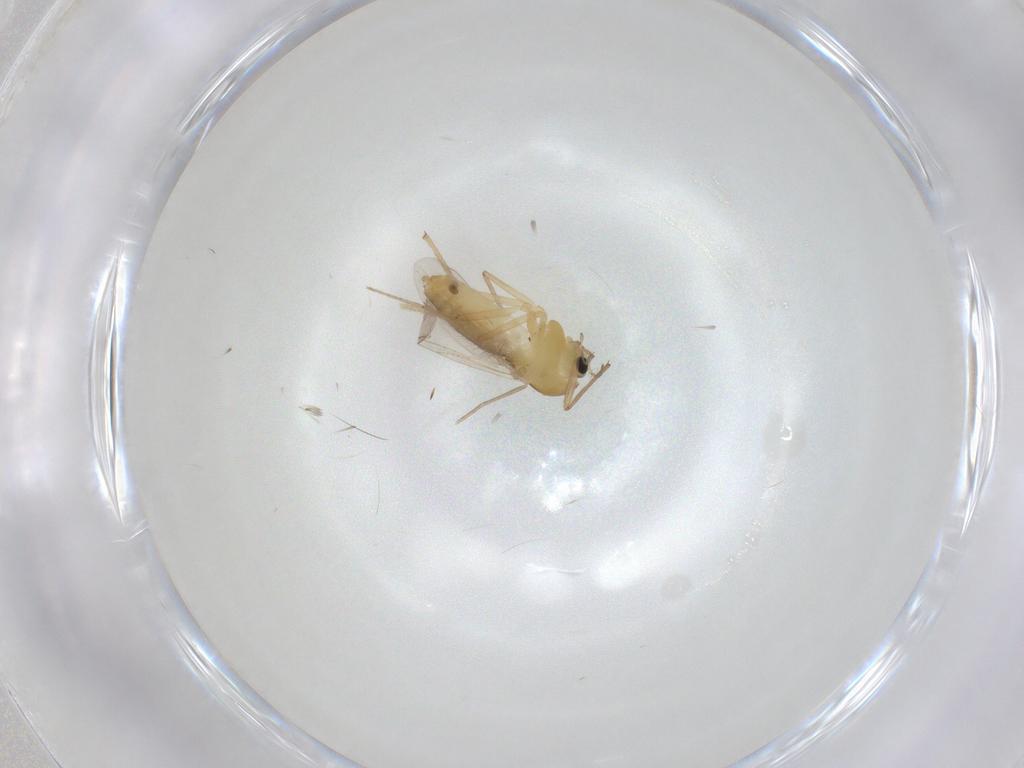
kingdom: Animalia
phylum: Arthropoda
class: Insecta
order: Diptera
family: Chironomidae
